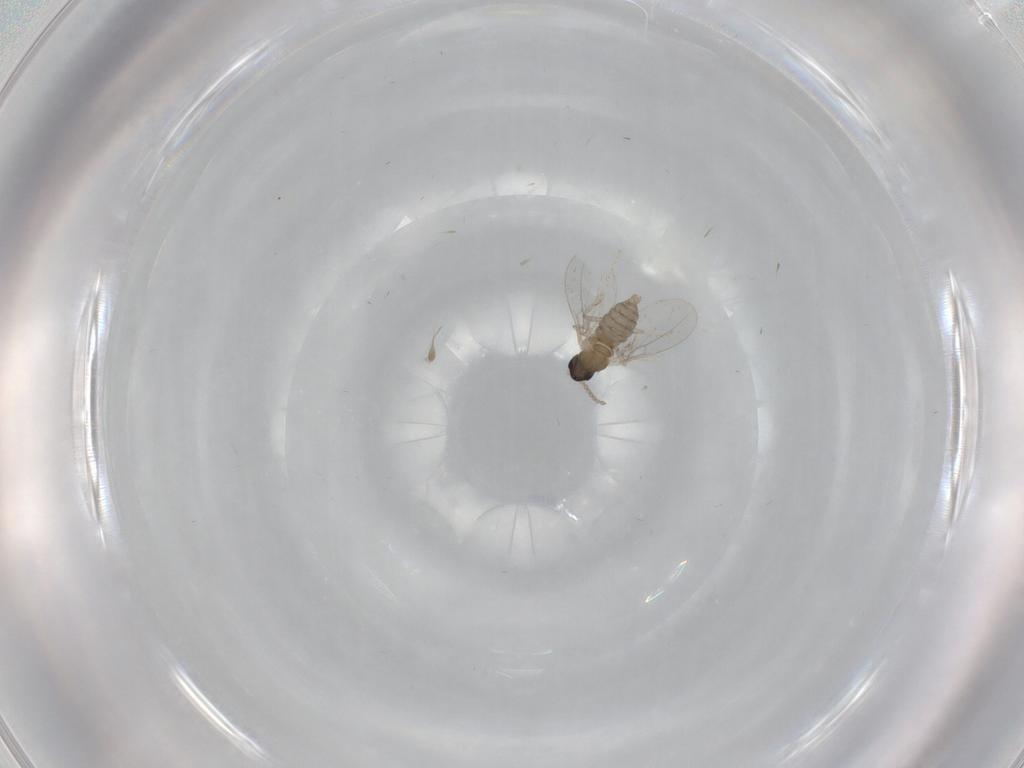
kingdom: Animalia
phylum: Arthropoda
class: Insecta
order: Diptera
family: Cecidomyiidae
